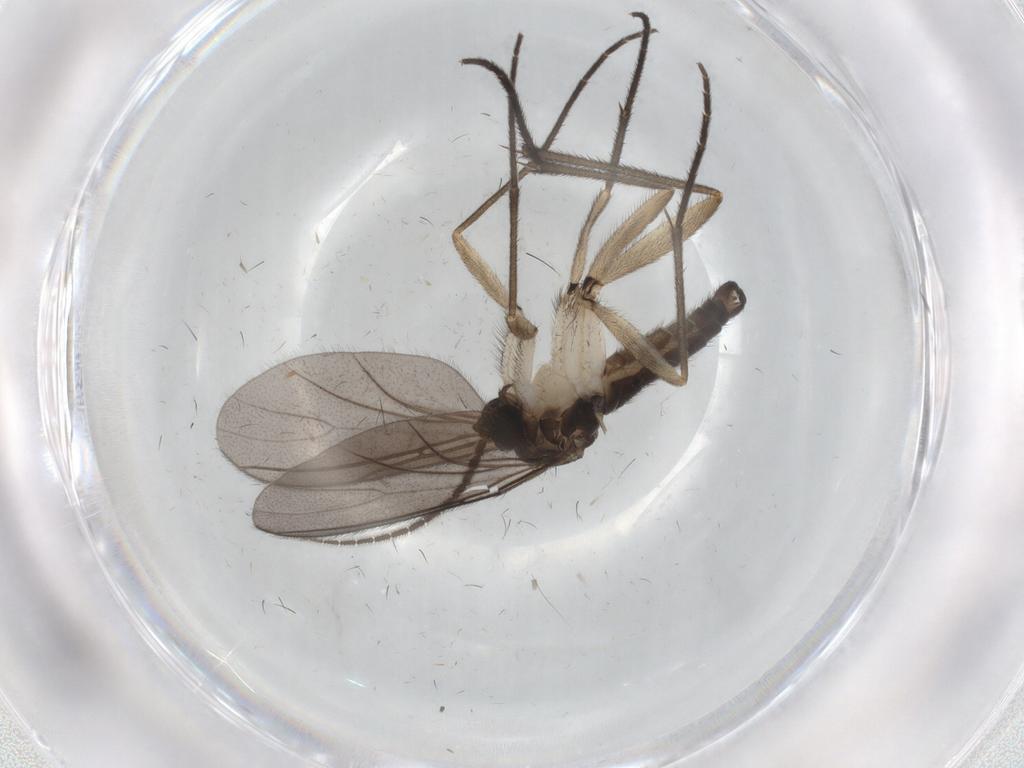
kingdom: Animalia
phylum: Arthropoda
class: Insecta
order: Diptera
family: Sciaridae
